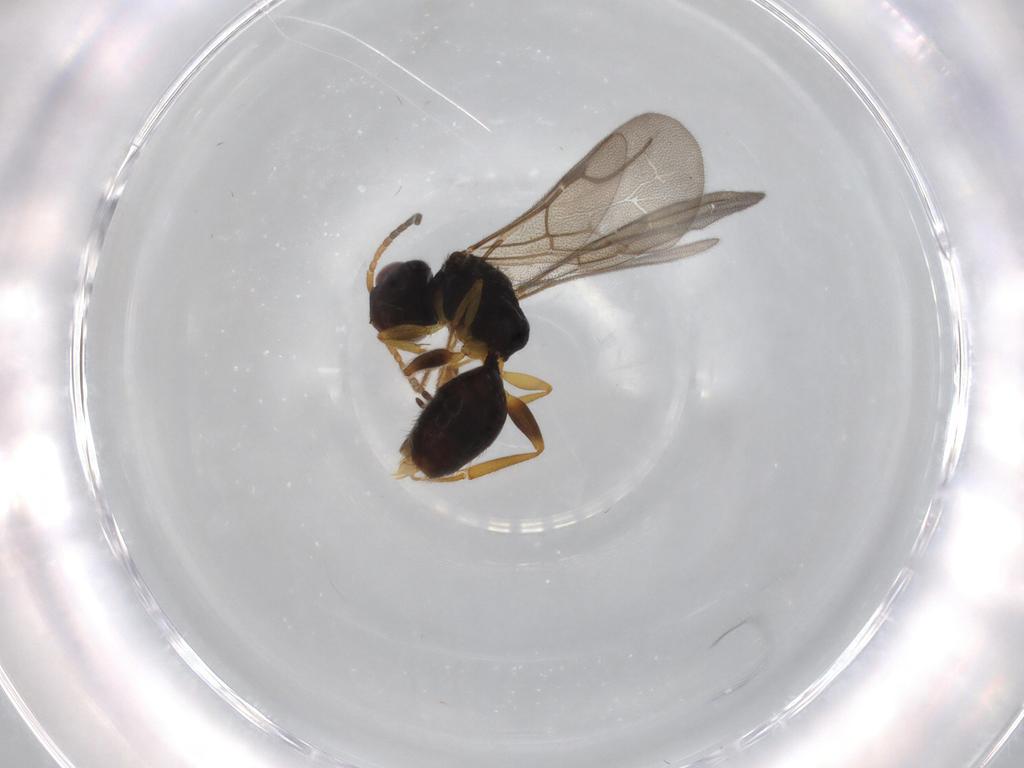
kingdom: Animalia
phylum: Arthropoda
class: Insecta
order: Hymenoptera
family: Bethylidae
